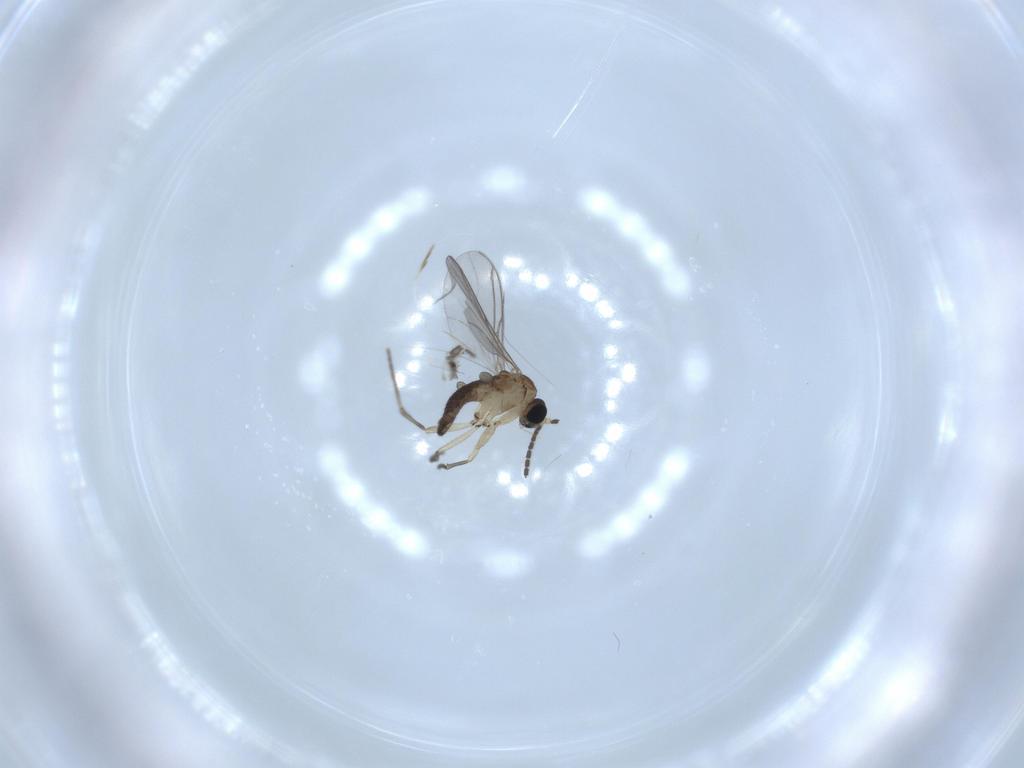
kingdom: Animalia
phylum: Arthropoda
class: Insecta
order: Diptera
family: Sciaridae
